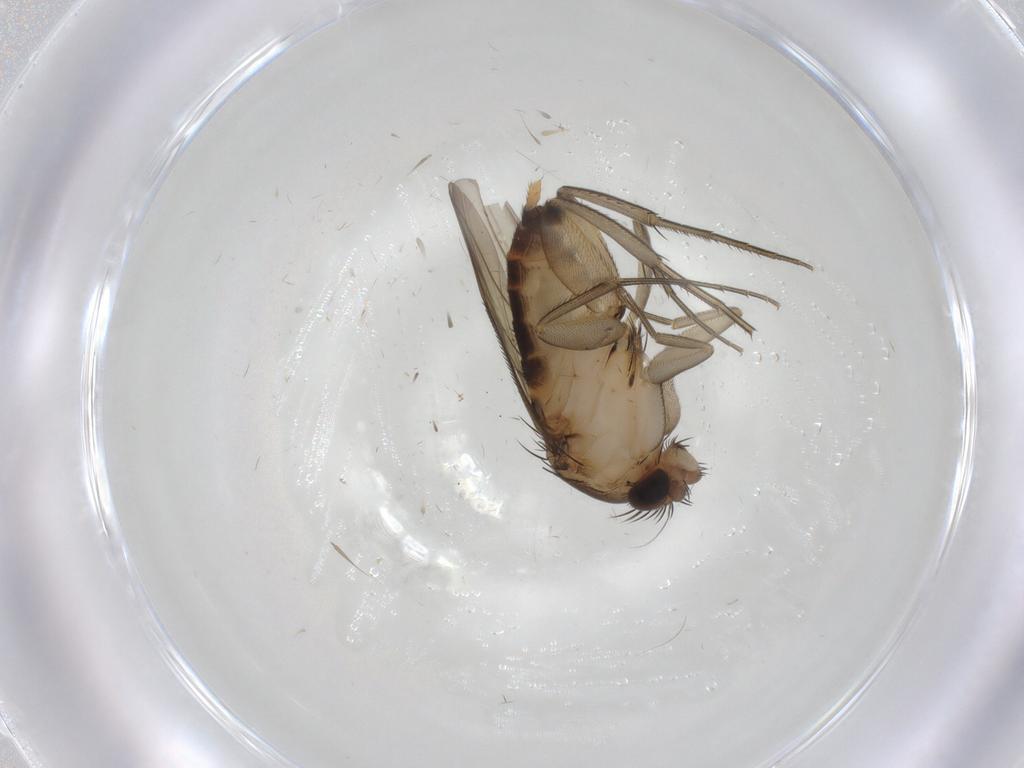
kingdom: Animalia
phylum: Arthropoda
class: Insecta
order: Diptera
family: Phoridae
